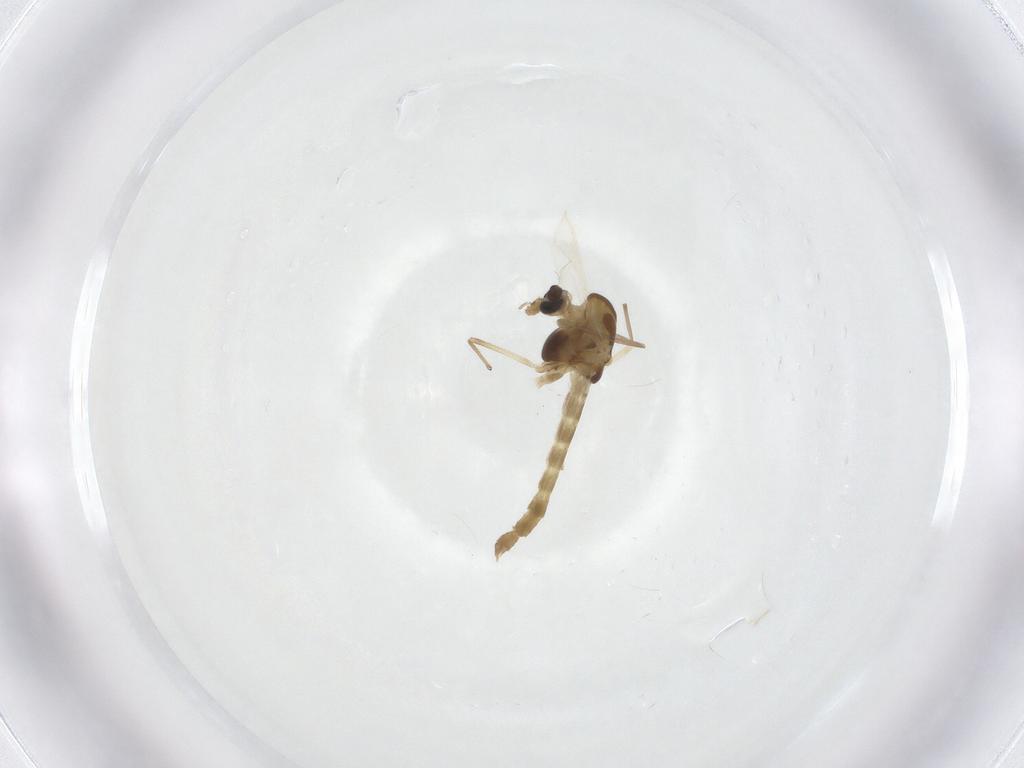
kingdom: Animalia
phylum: Arthropoda
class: Insecta
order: Diptera
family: Chironomidae
